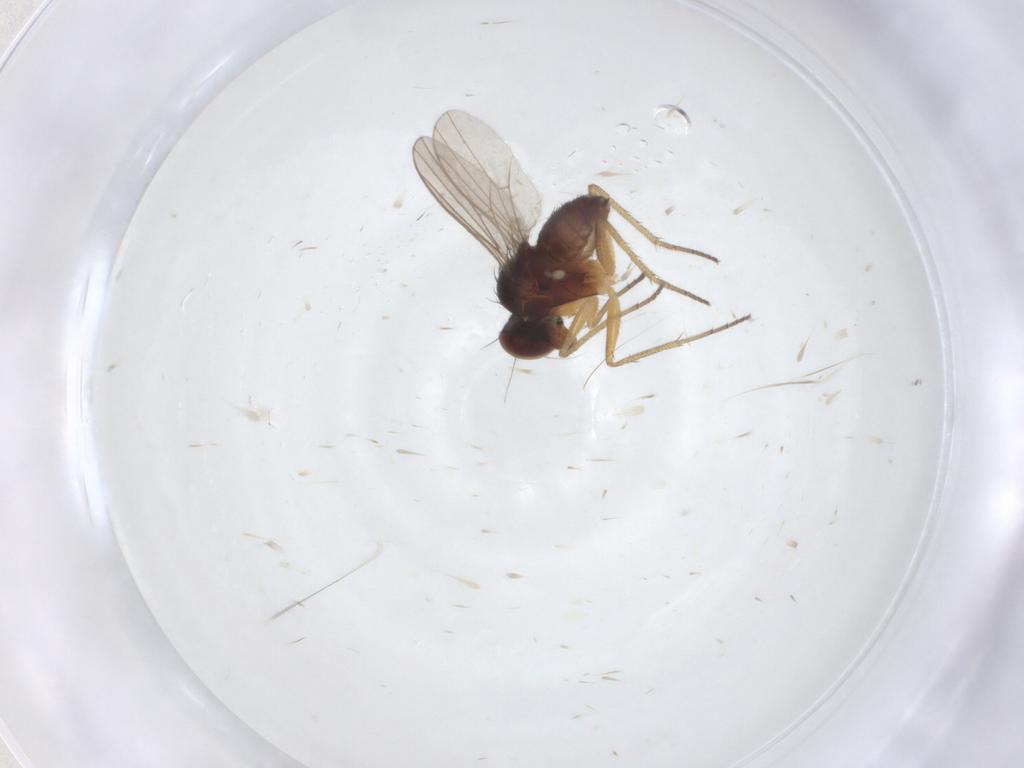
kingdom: Animalia
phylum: Arthropoda
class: Insecta
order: Diptera
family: Dolichopodidae
